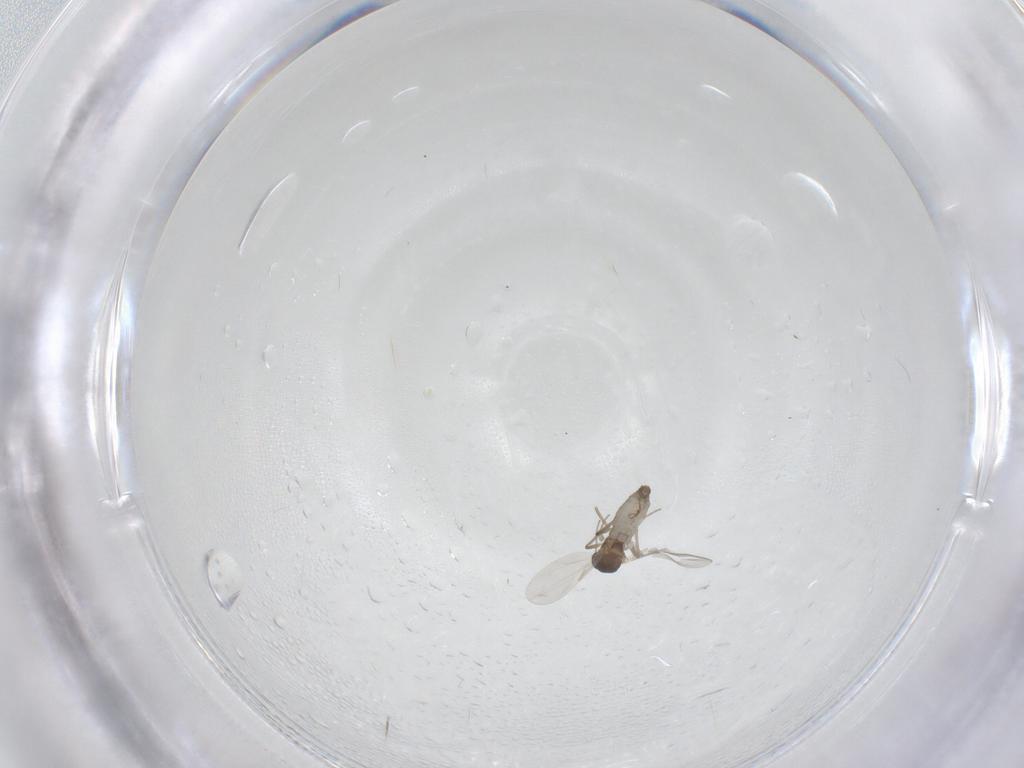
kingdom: Animalia
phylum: Arthropoda
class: Insecta
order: Diptera
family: Ceratopogonidae
